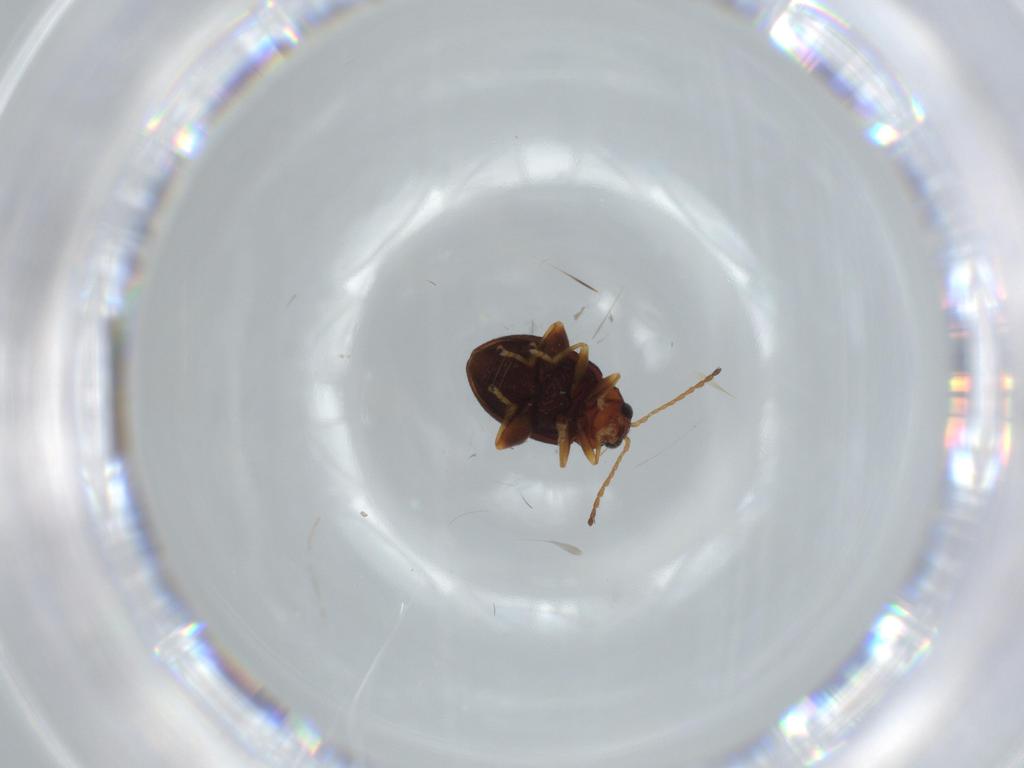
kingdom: Animalia
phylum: Arthropoda
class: Insecta
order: Coleoptera
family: Chrysomelidae
